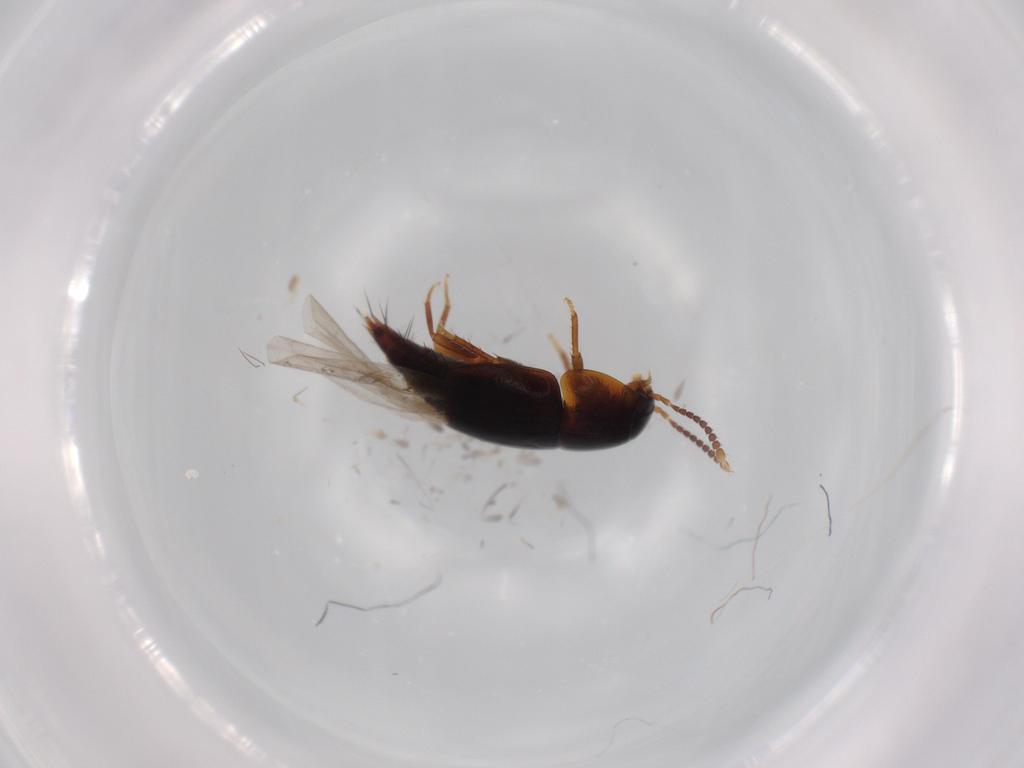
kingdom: Animalia
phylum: Arthropoda
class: Insecta
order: Coleoptera
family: Staphylinidae
